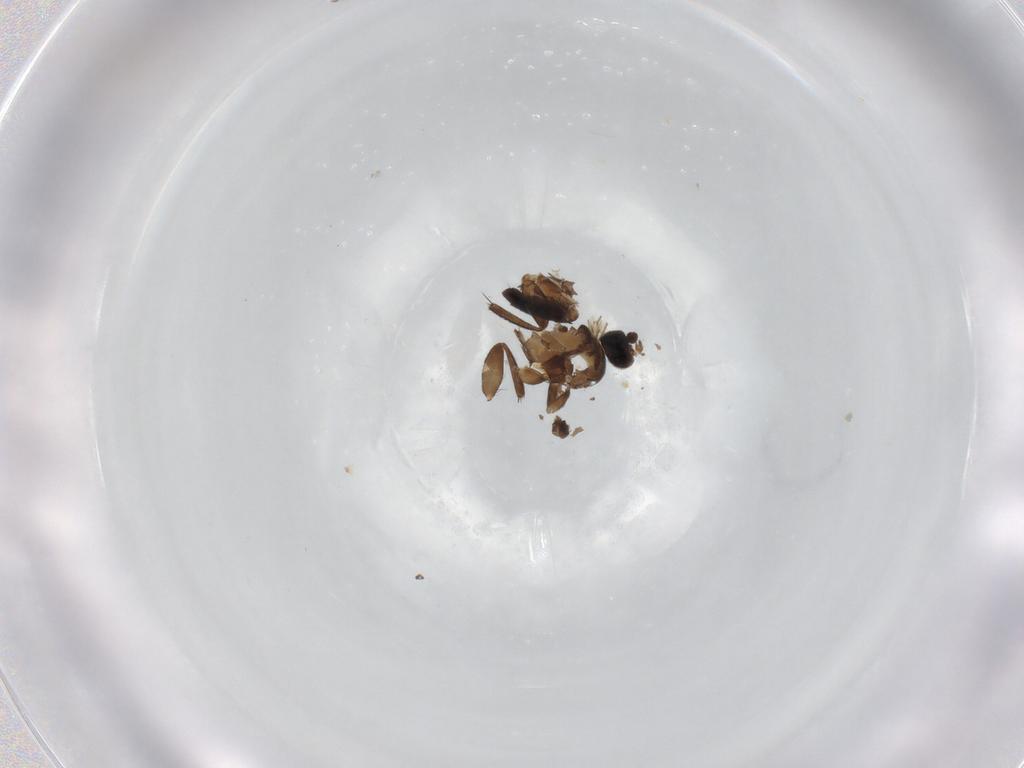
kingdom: Animalia
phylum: Arthropoda
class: Insecta
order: Diptera
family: Phoridae
